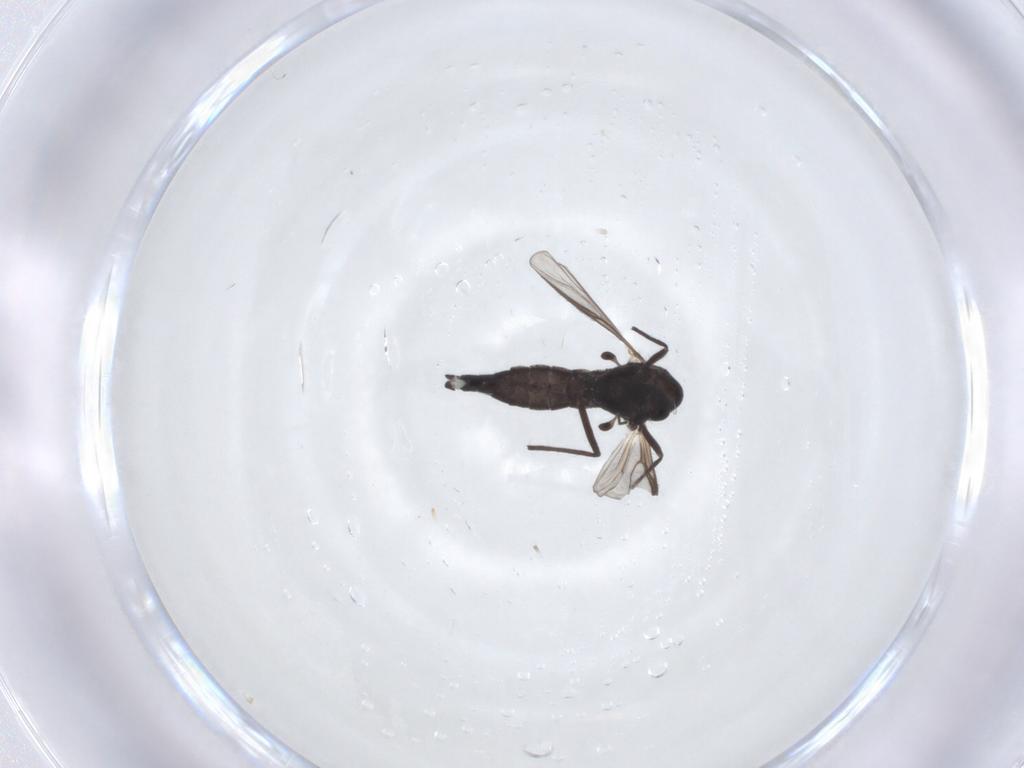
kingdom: Animalia
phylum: Arthropoda
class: Insecta
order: Diptera
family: Chironomidae
